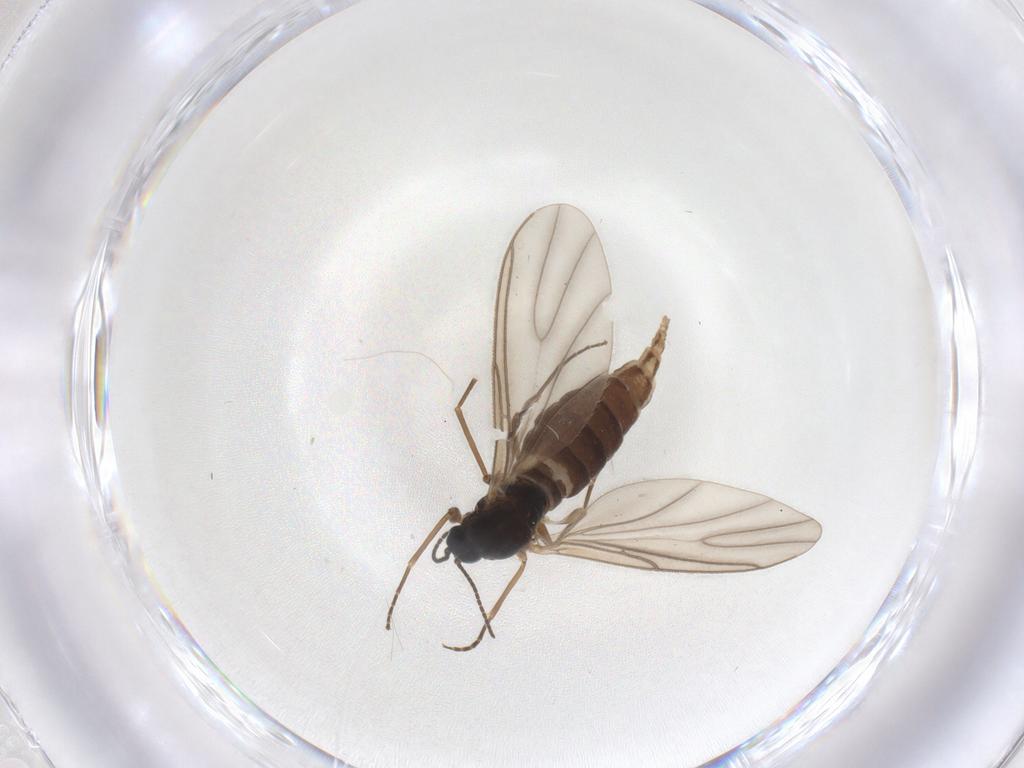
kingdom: Animalia
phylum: Arthropoda
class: Insecta
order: Diptera
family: Sciaridae
